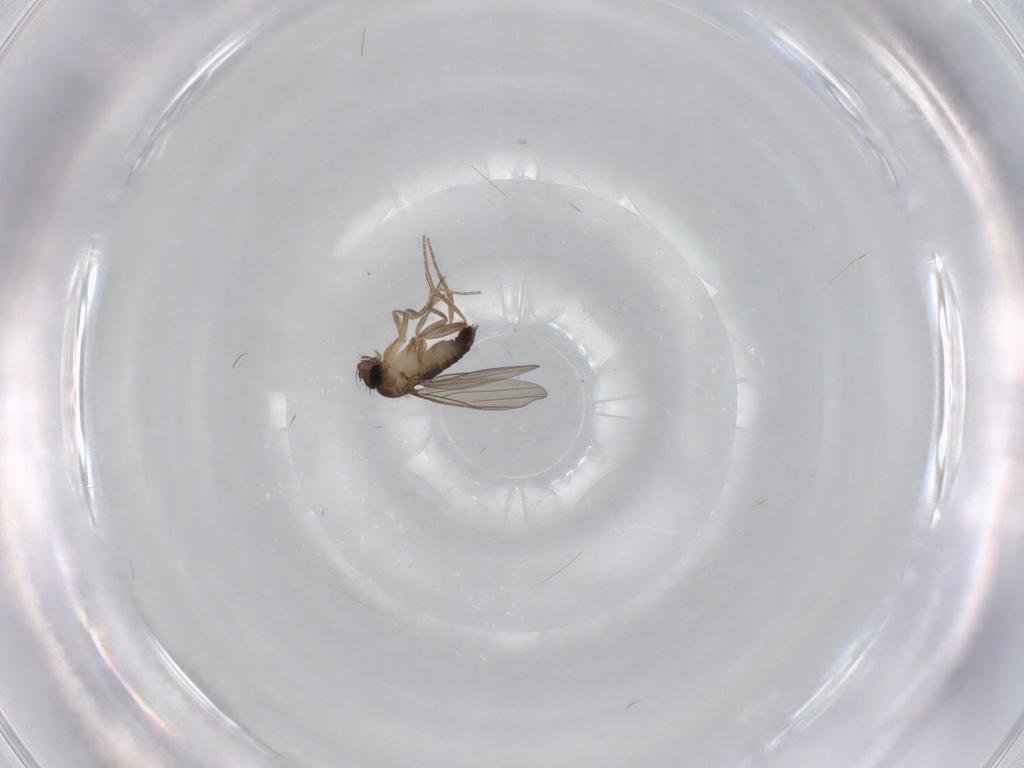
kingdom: Animalia
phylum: Arthropoda
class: Insecta
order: Diptera
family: Phoridae
